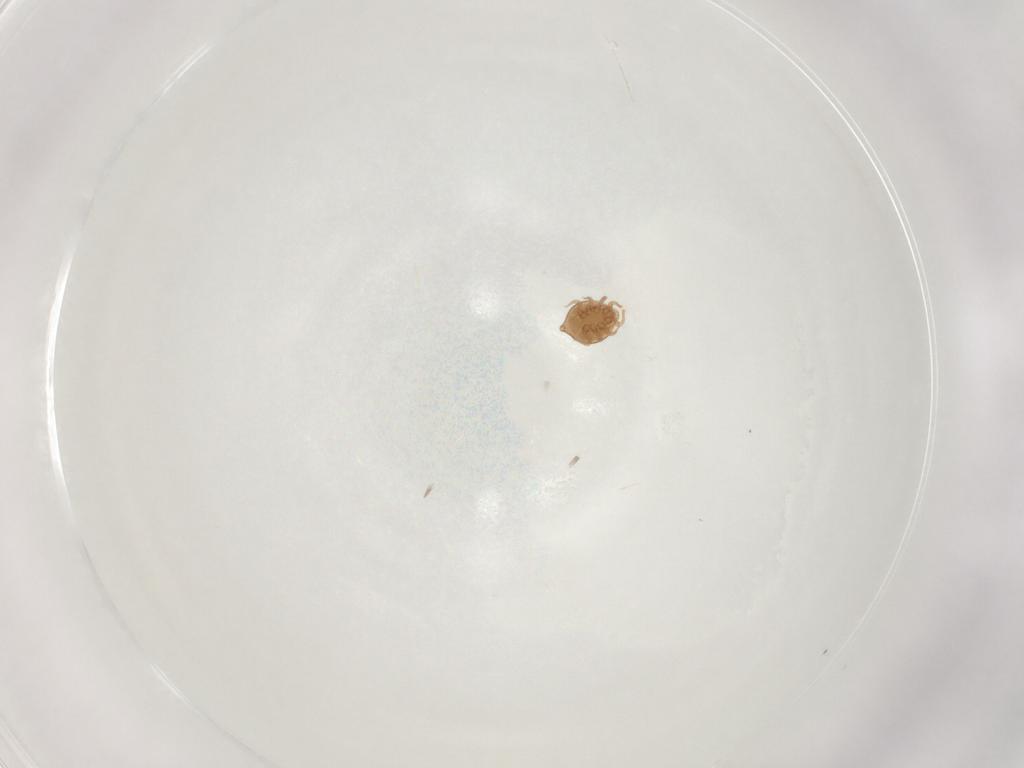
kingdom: Animalia
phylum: Arthropoda
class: Arachnida
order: Mesostigmata
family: Polyaspididae
